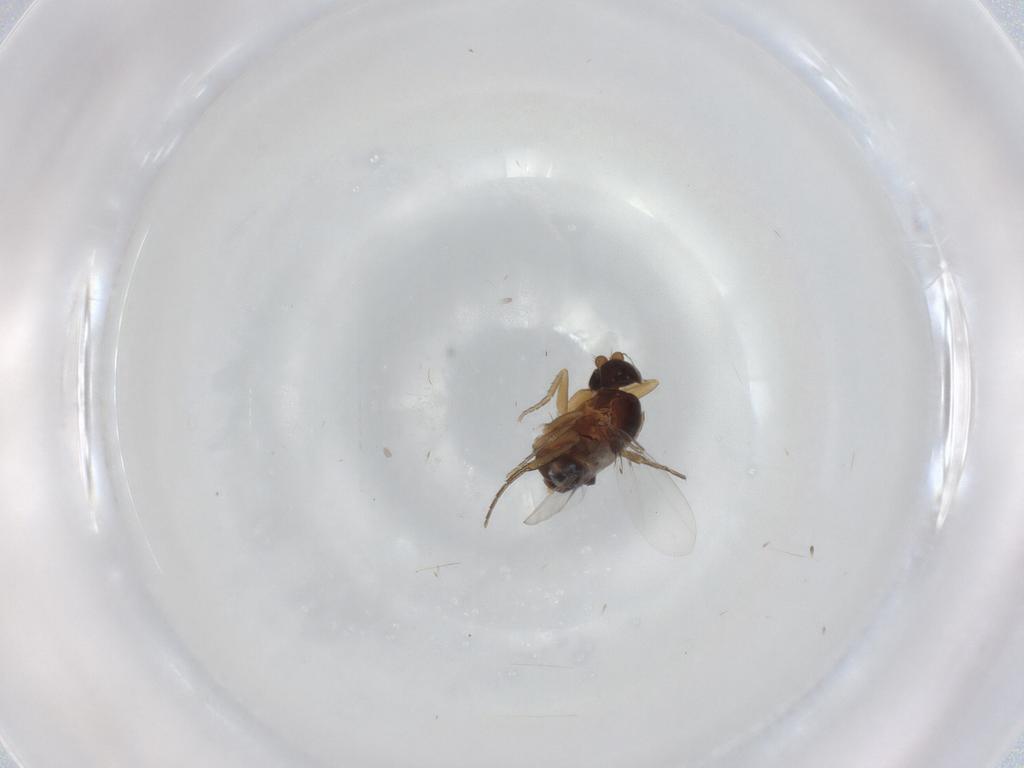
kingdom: Animalia
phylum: Arthropoda
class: Insecta
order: Diptera
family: Phoridae
